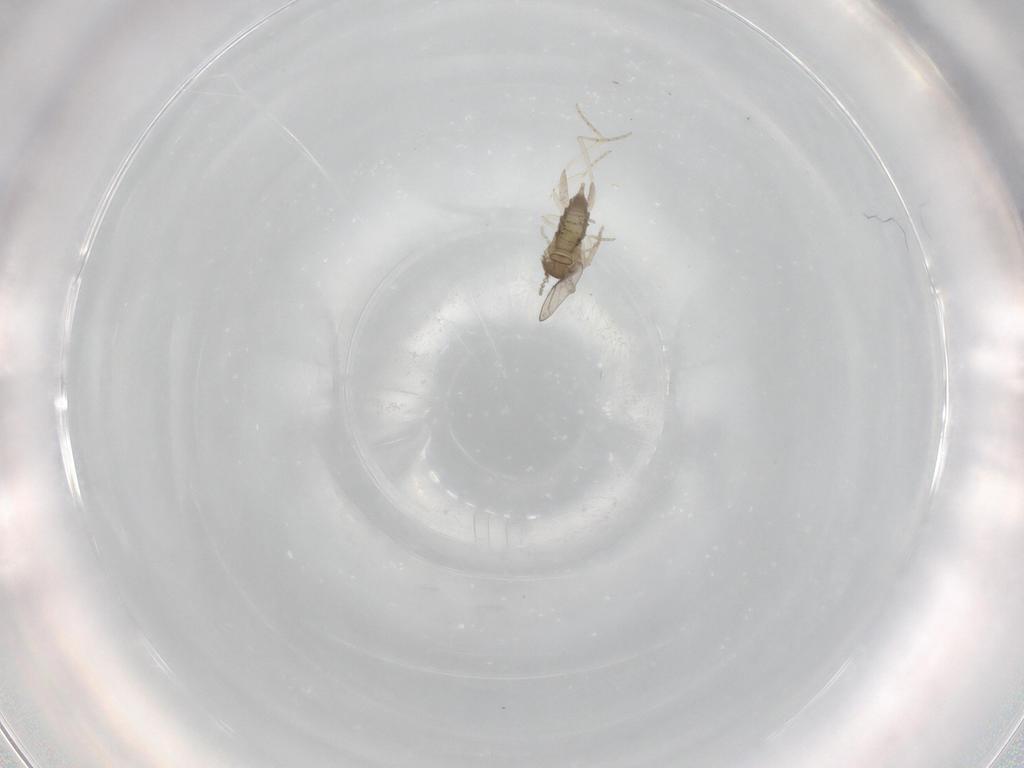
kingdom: Animalia
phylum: Arthropoda
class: Insecta
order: Diptera
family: Cecidomyiidae
